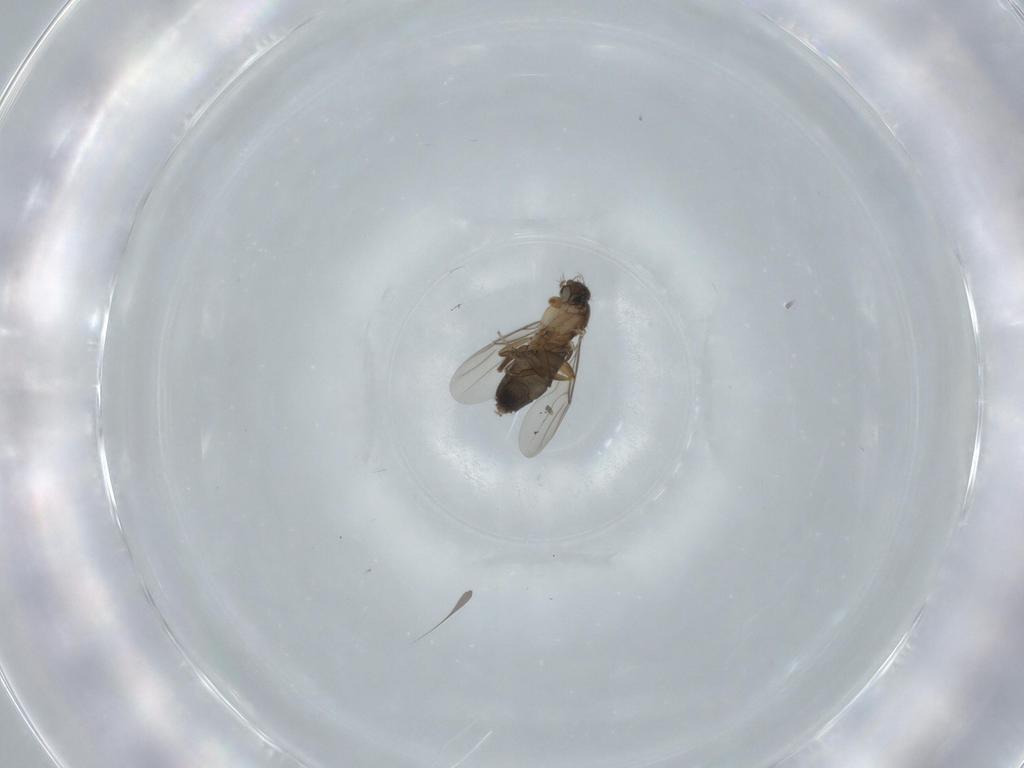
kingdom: Animalia
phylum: Arthropoda
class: Insecta
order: Diptera
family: Phoridae
